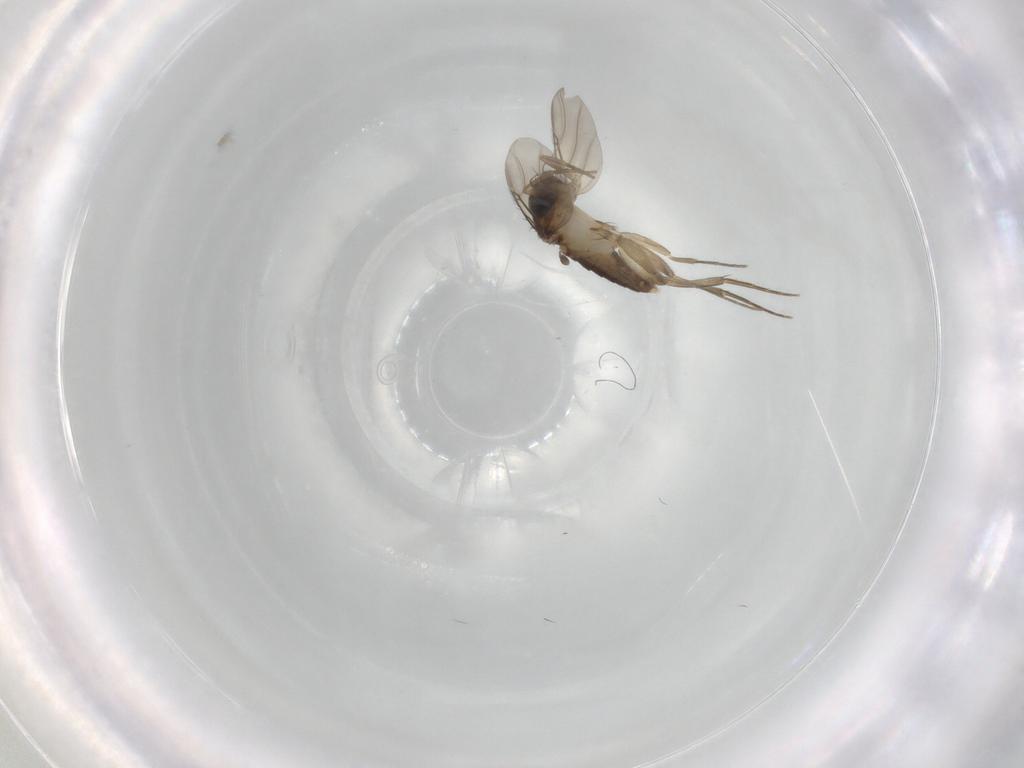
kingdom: Animalia
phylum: Arthropoda
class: Insecta
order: Diptera
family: Phoridae
